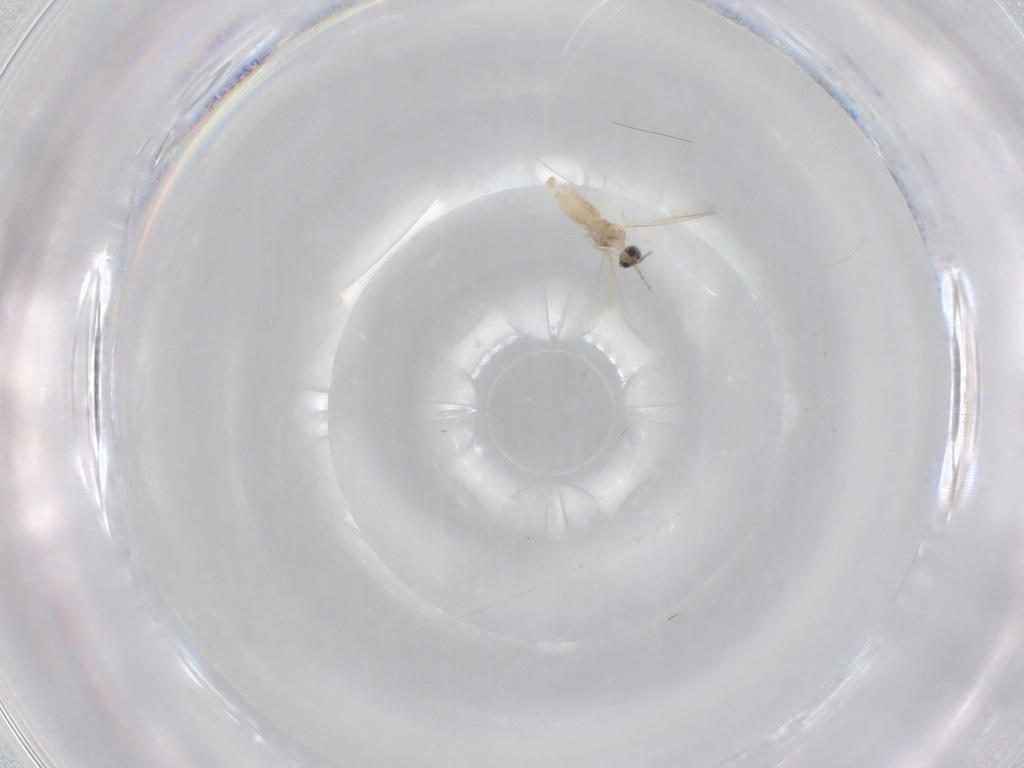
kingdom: Animalia
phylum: Arthropoda
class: Insecta
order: Diptera
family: Cecidomyiidae
